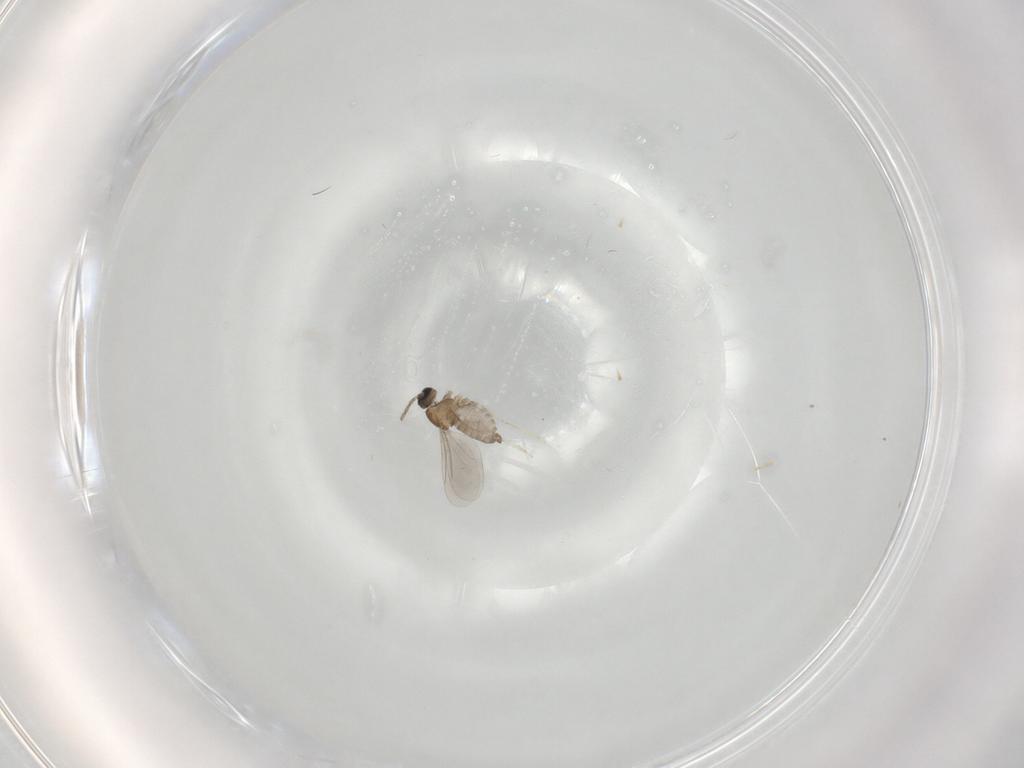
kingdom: Animalia
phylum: Arthropoda
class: Insecta
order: Diptera
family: Cecidomyiidae
